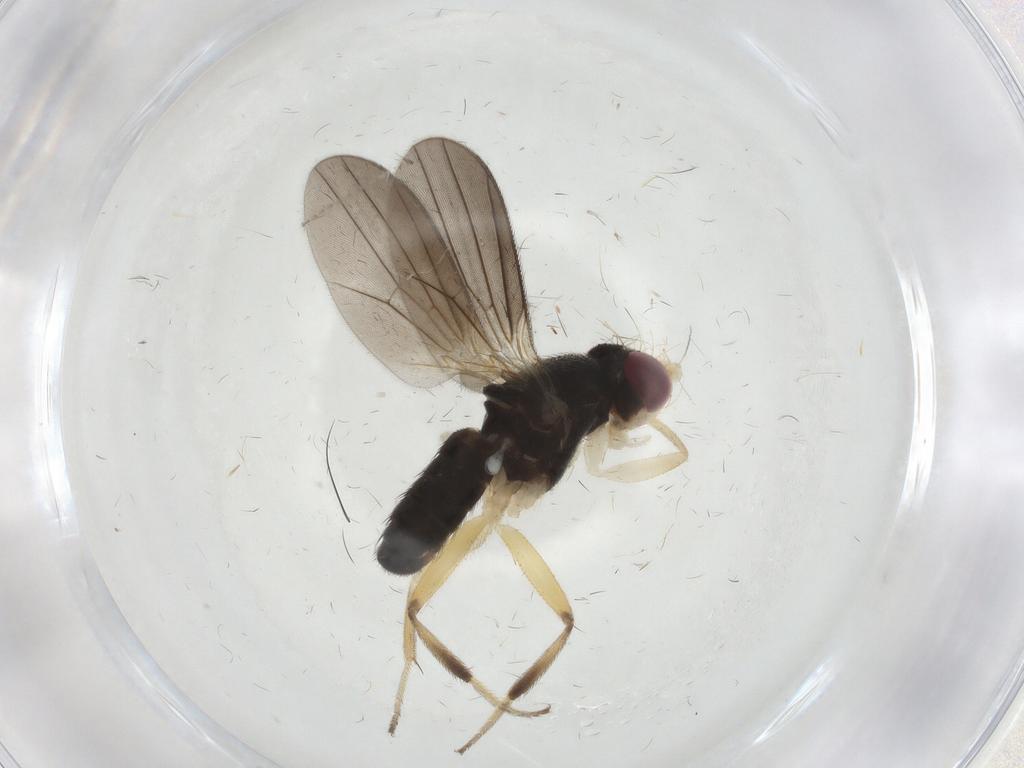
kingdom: Animalia
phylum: Arthropoda
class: Insecta
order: Diptera
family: Clusiidae
